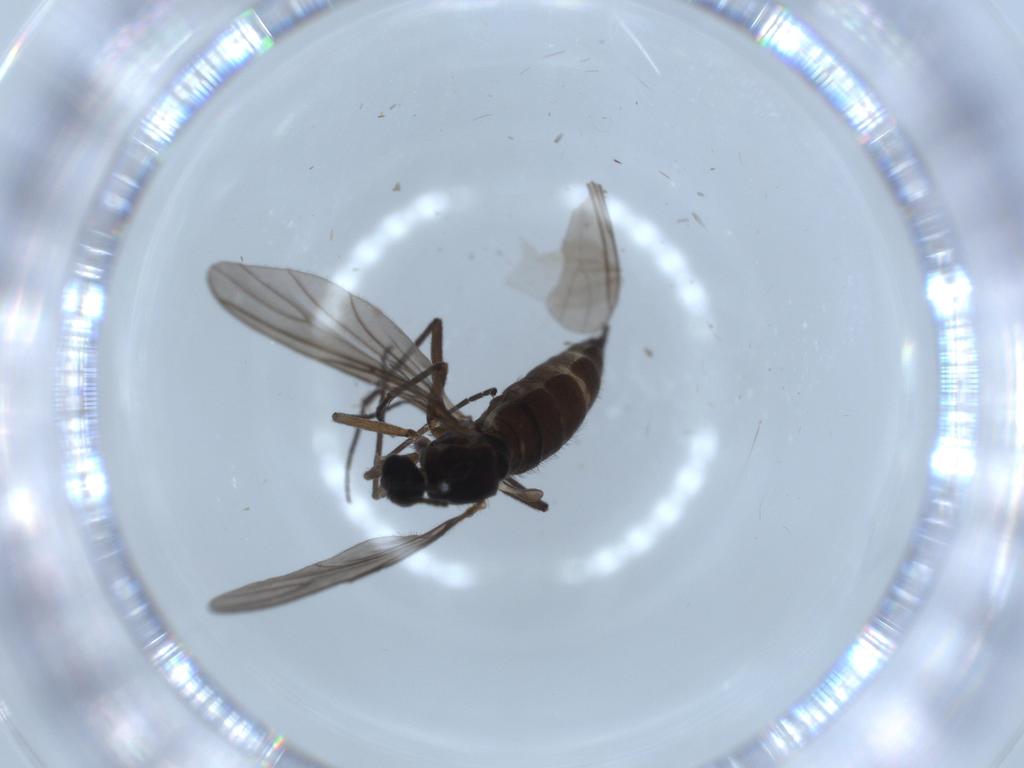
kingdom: Animalia
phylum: Arthropoda
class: Insecta
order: Diptera
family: Sciaridae
